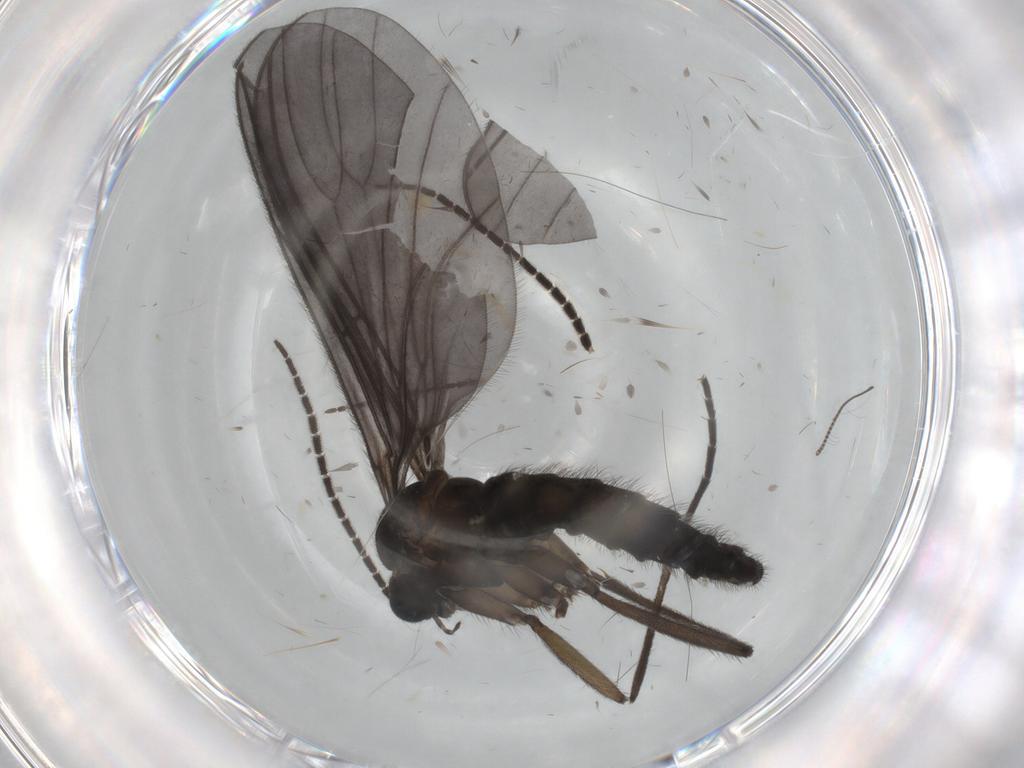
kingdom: Animalia
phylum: Arthropoda
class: Insecta
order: Diptera
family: Sciaridae
